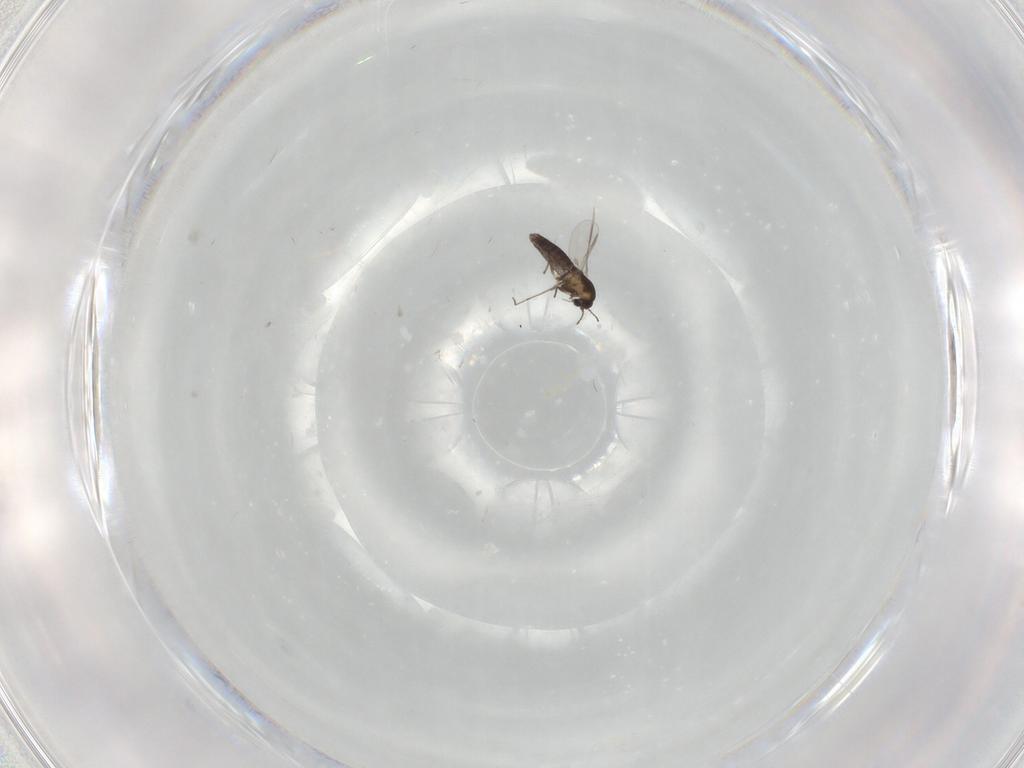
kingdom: Animalia
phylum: Arthropoda
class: Insecta
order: Diptera
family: Chironomidae
